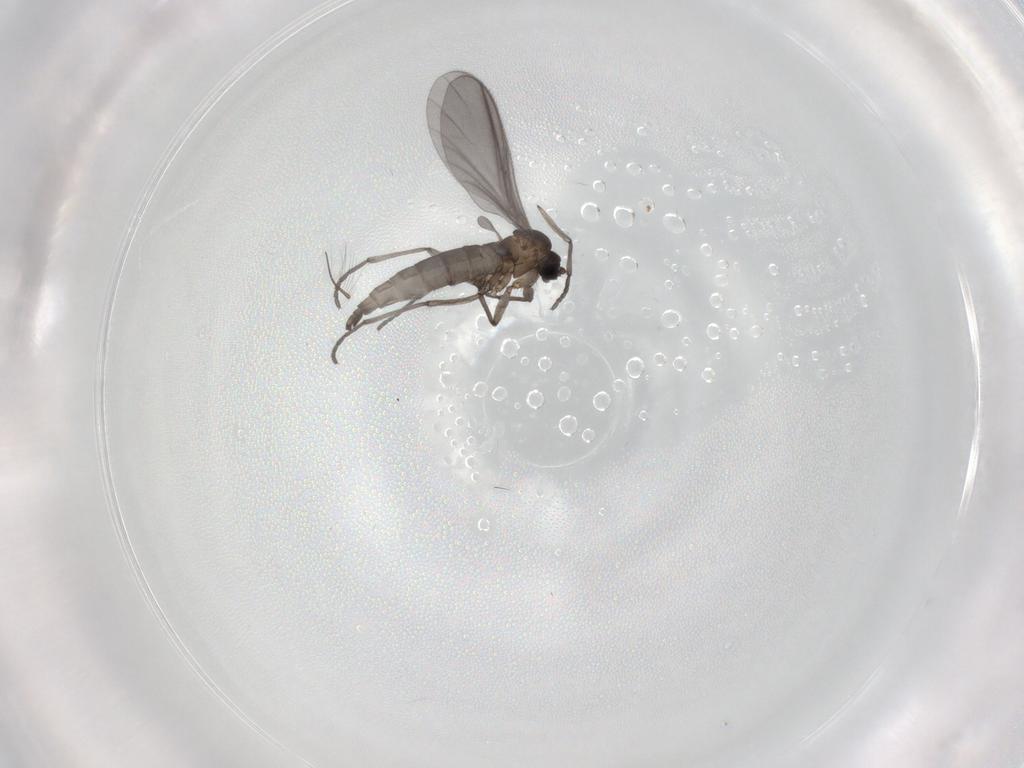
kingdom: Animalia
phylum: Arthropoda
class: Insecta
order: Diptera
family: Sciaridae
